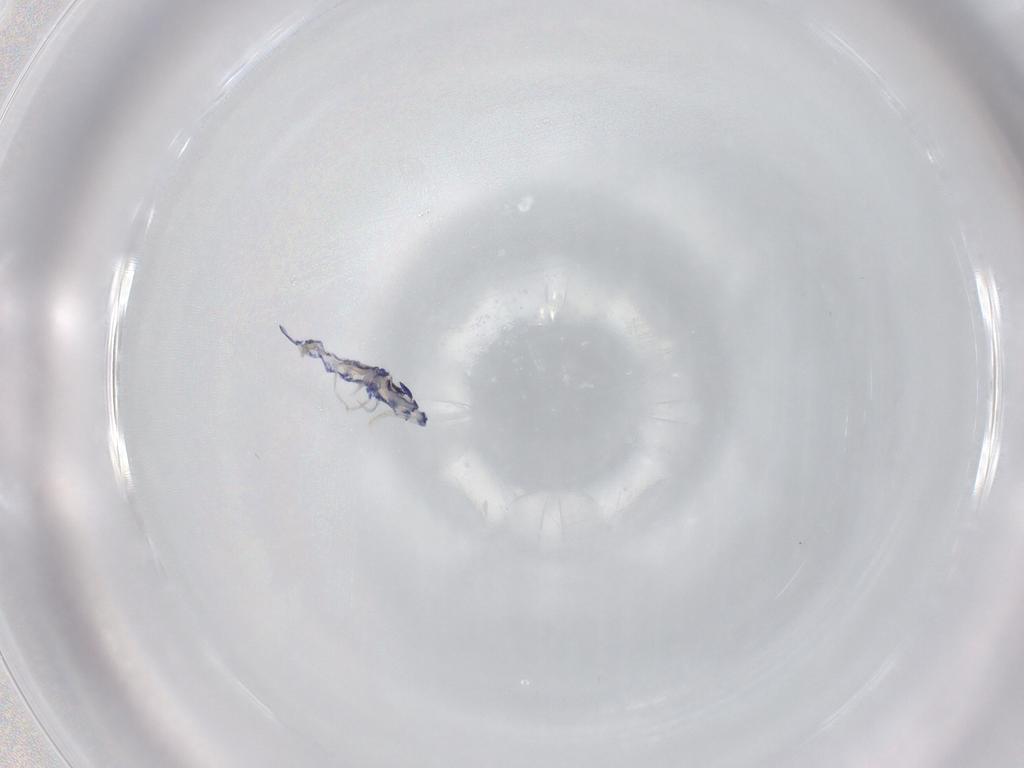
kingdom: Animalia
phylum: Arthropoda
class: Collembola
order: Entomobryomorpha
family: Entomobryidae
